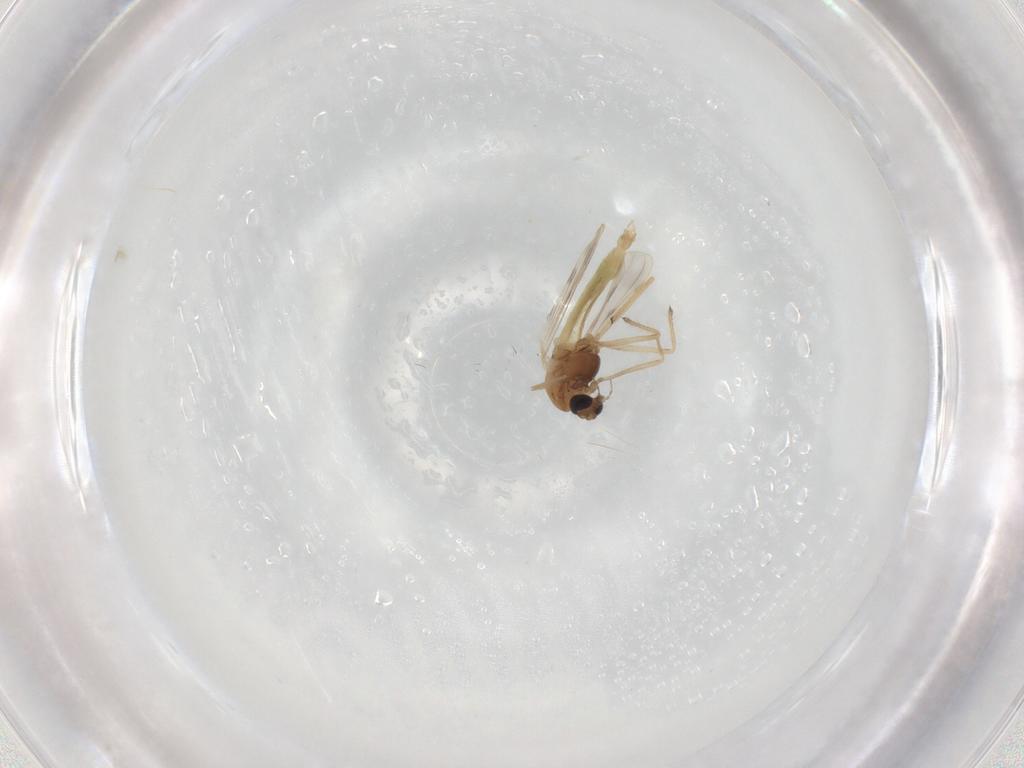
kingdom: Animalia
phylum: Arthropoda
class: Insecta
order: Diptera
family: Chironomidae
